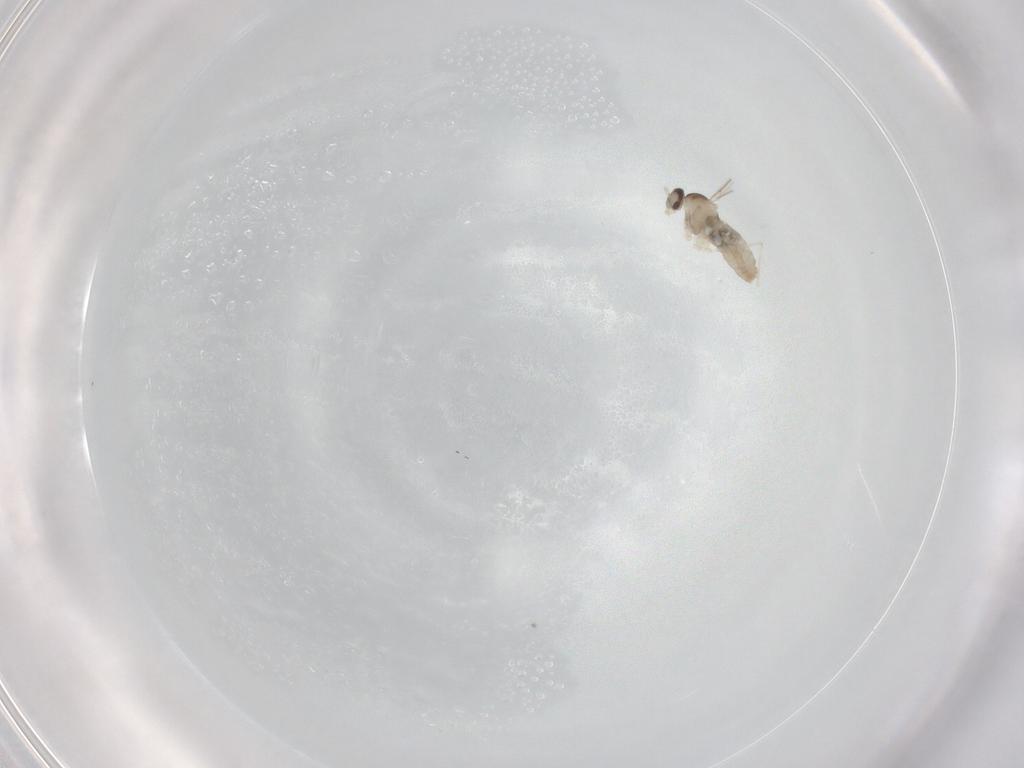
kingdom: Animalia
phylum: Arthropoda
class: Insecta
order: Diptera
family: Cecidomyiidae
